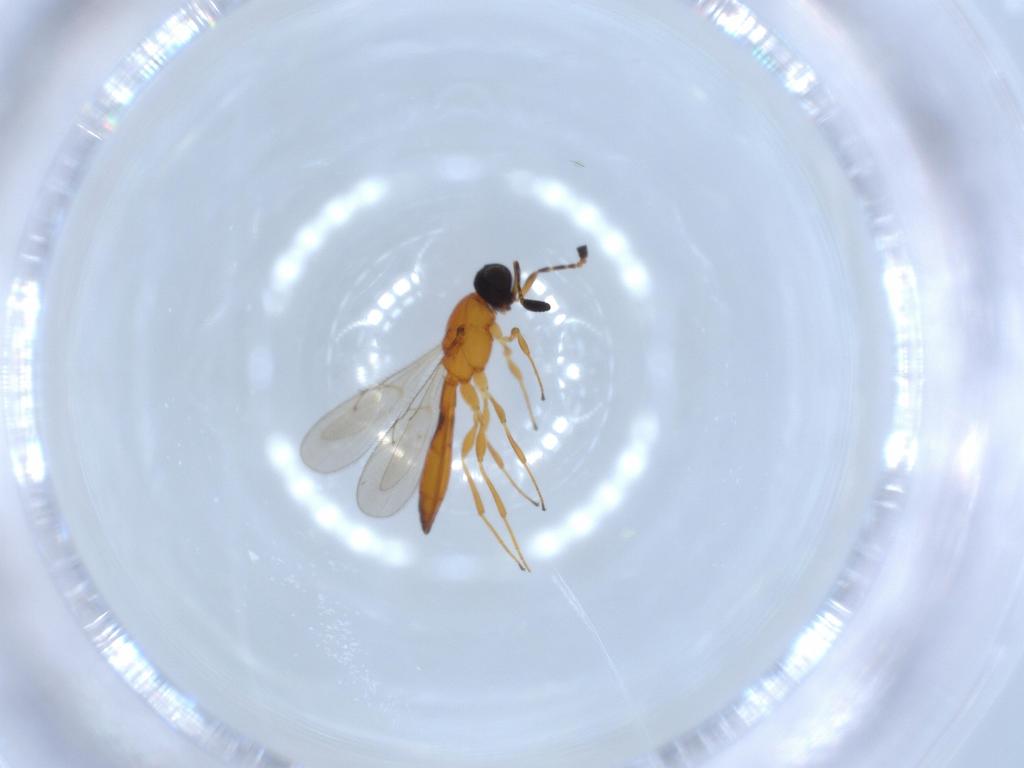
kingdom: Animalia
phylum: Arthropoda
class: Insecta
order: Hymenoptera
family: Scelionidae
